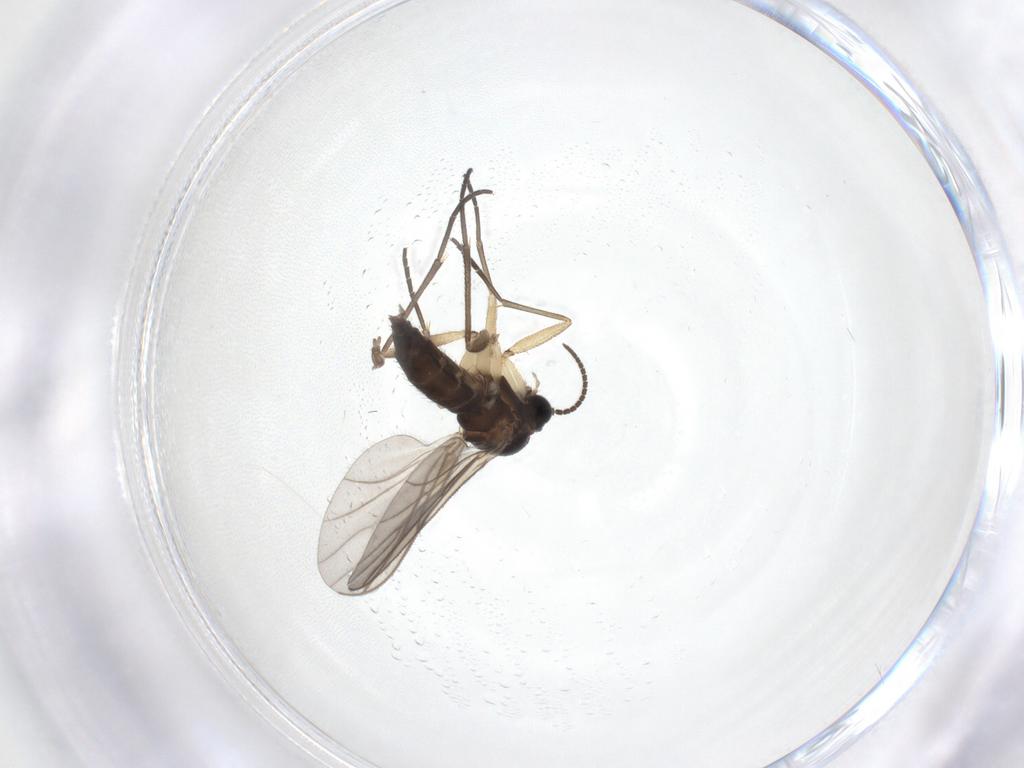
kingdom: Animalia
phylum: Arthropoda
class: Insecta
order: Diptera
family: Sciaridae
